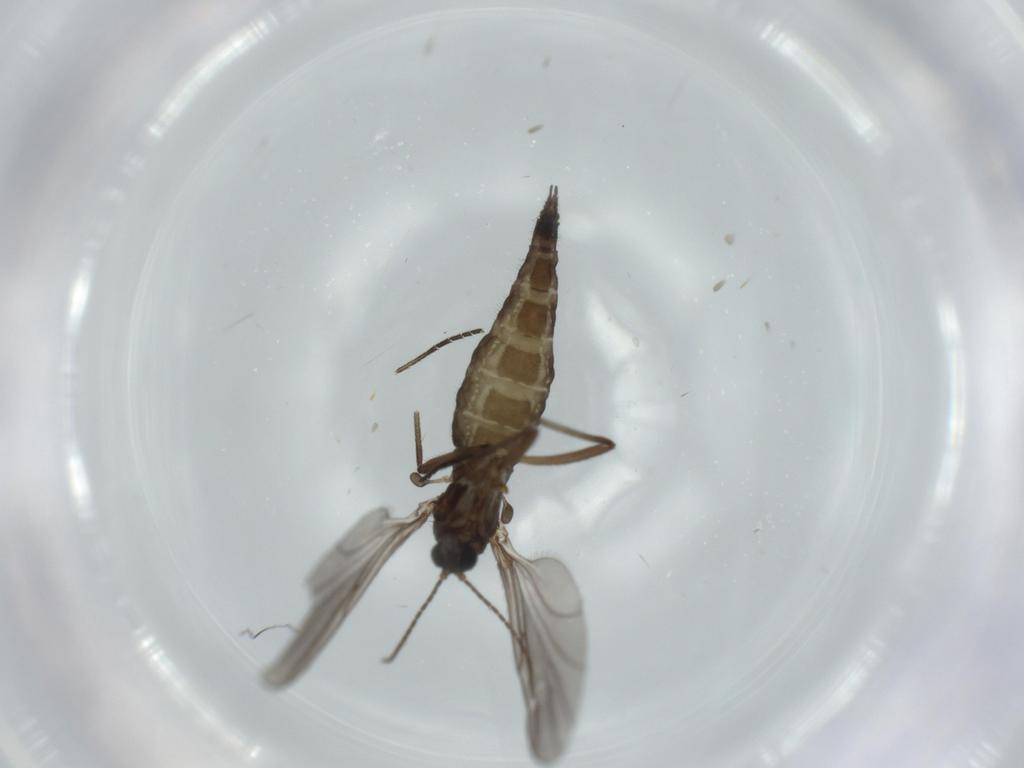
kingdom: Animalia
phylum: Arthropoda
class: Insecta
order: Diptera
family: Sciaridae
